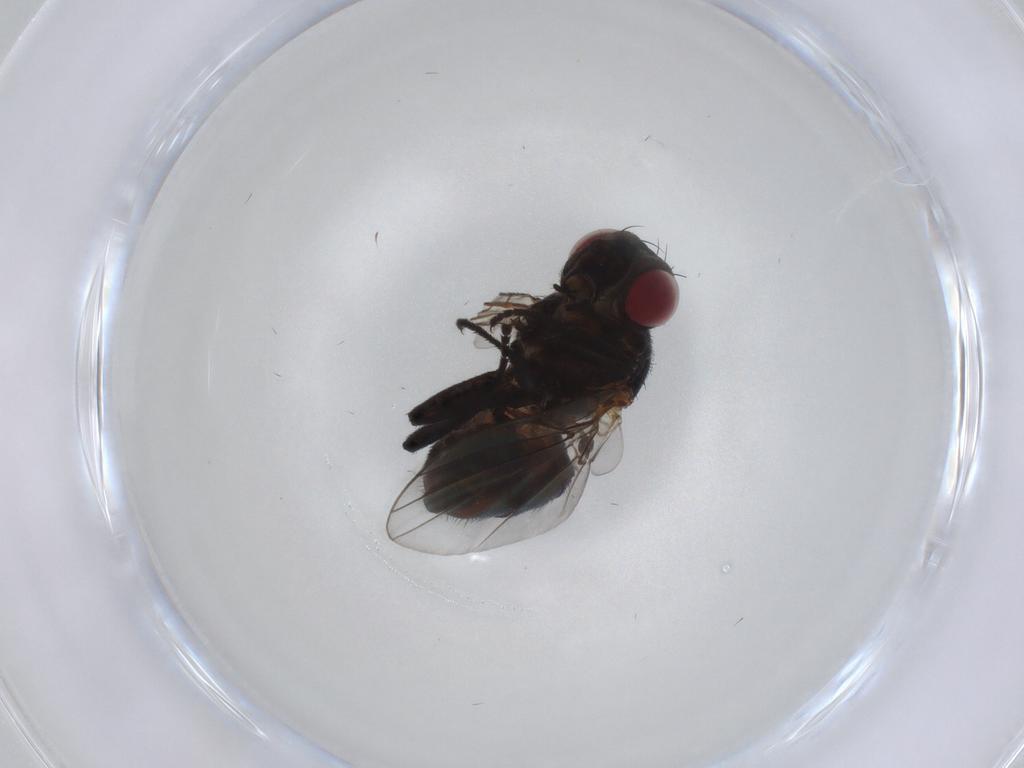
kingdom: Animalia
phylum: Arthropoda
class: Insecta
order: Diptera
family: Agromyzidae
